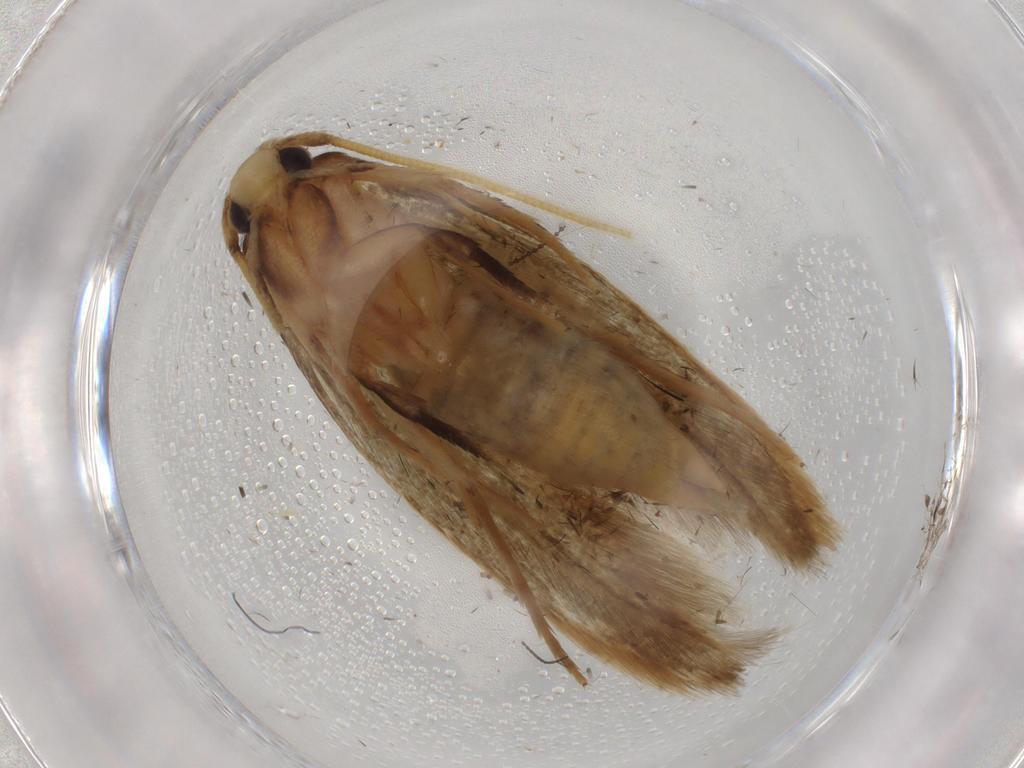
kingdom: Animalia
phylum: Arthropoda
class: Insecta
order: Lepidoptera
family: Tineidae
